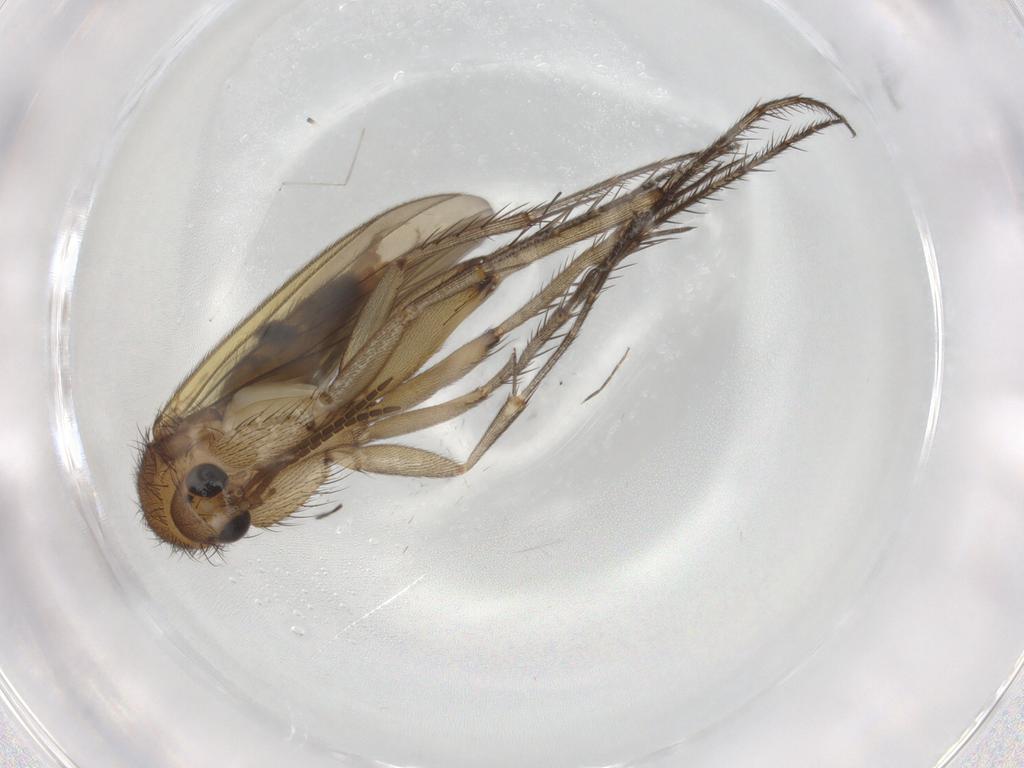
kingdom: Animalia
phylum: Arthropoda
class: Insecta
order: Diptera
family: Mycetophilidae
